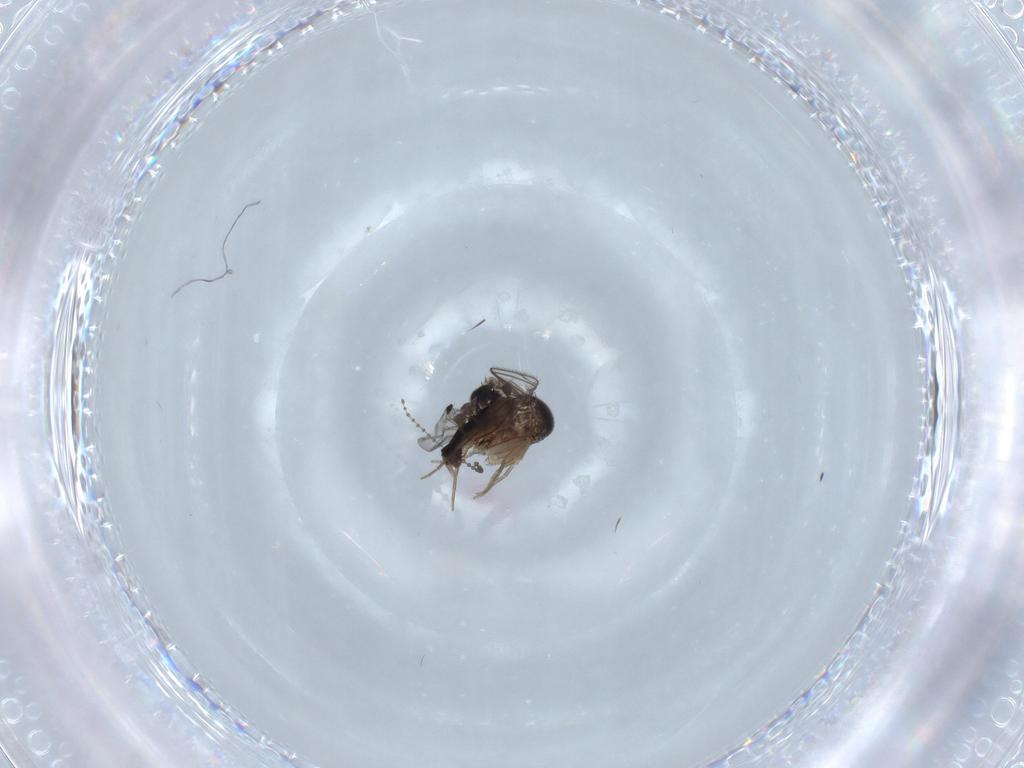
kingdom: Animalia
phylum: Arthropoda
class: Insecta
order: Diptera
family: Phoridae
